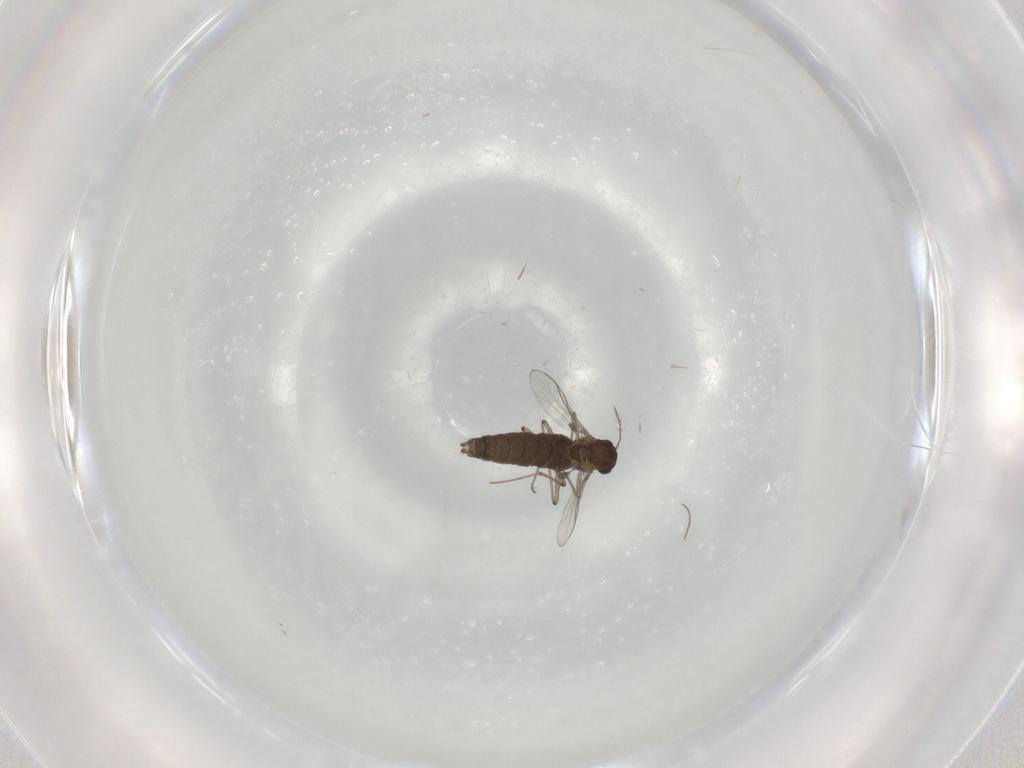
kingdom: Animalia
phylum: Arthropoda
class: Insecta
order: Diptera
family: Chironomidae
